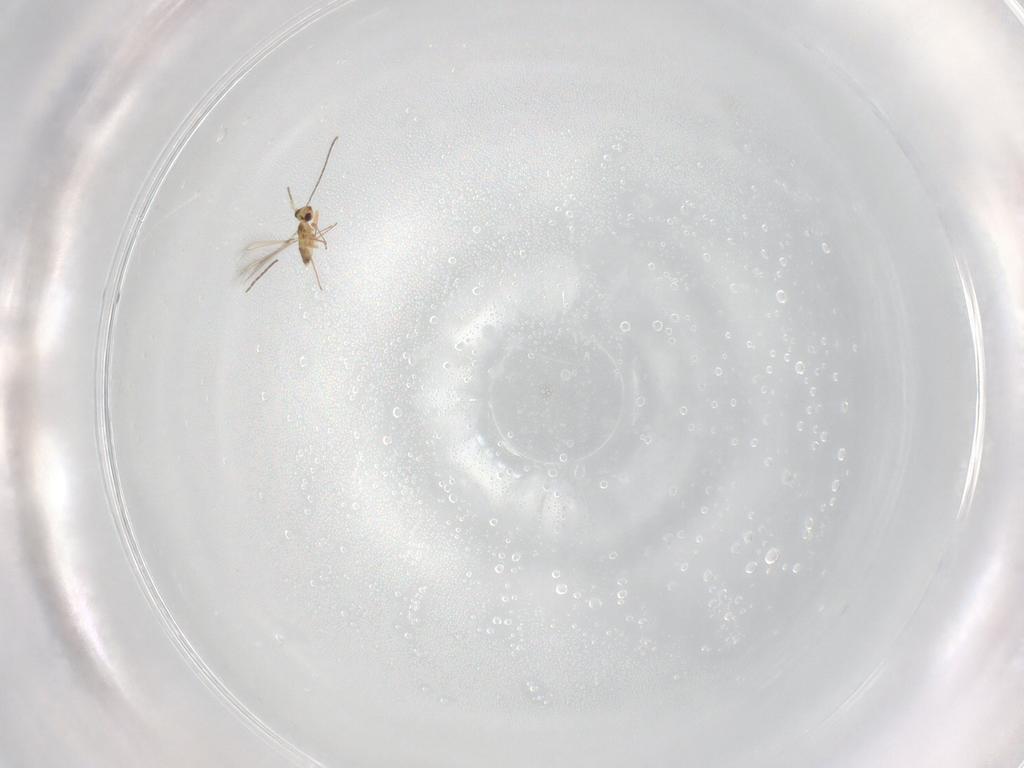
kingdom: Animalia
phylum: Arthropoda
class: Insecta
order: Hymenoptera
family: Mymaridae
